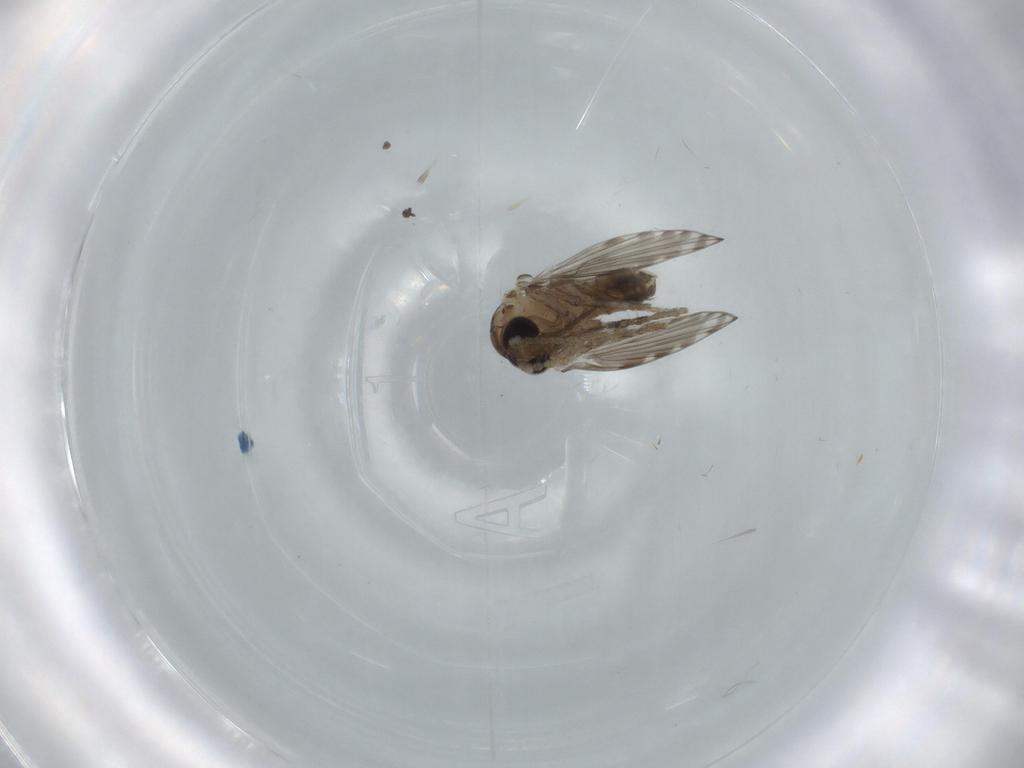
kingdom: Animalia
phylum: Arthropoda
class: Insecta
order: Diptera
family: Psychodidae
